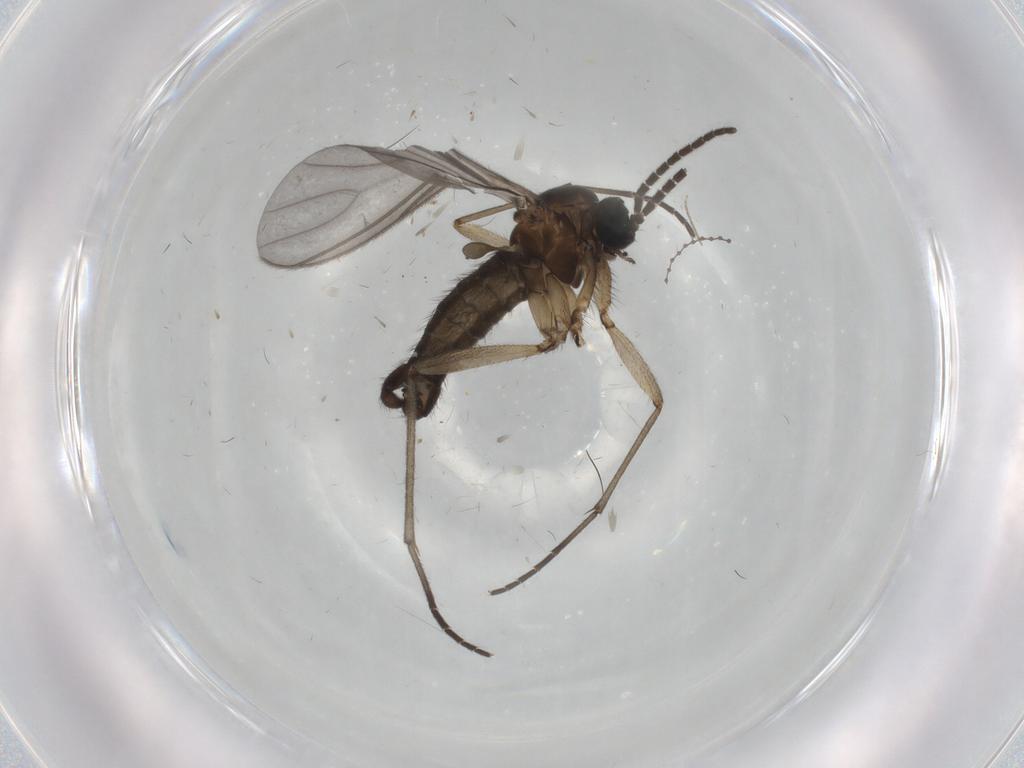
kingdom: Animalia
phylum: Arthropoda
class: Insecta
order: Diptera
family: Sciaridae
